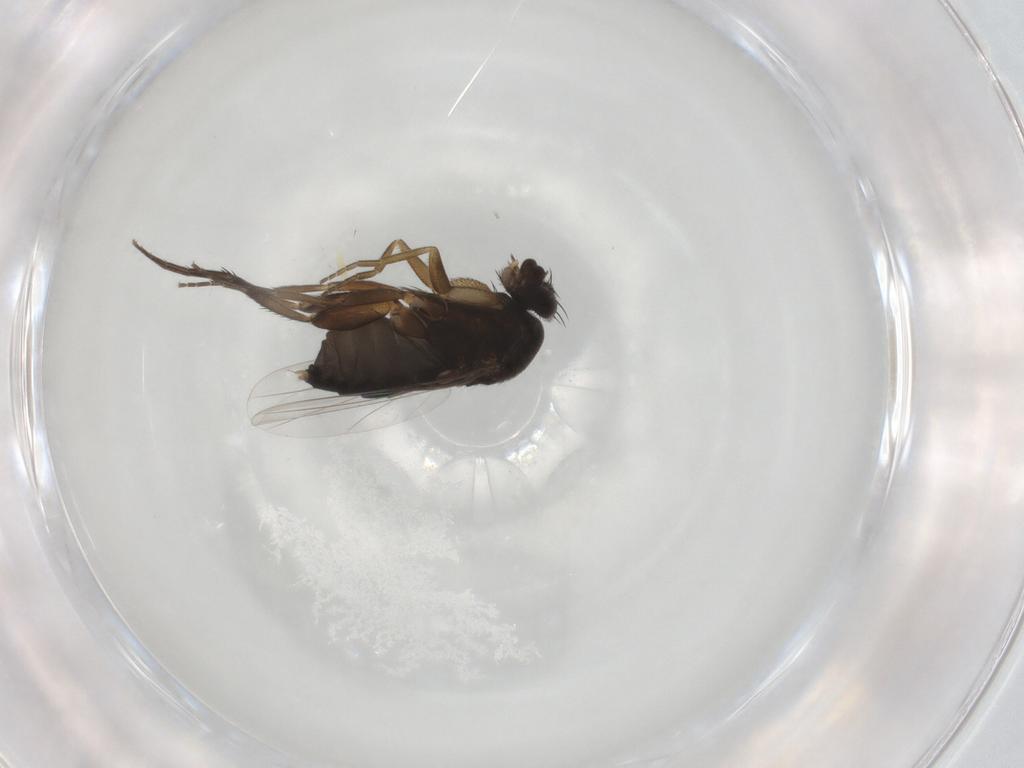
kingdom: Animalia
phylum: Arthropoda
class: Insecta
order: Diptera
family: Phoridae
